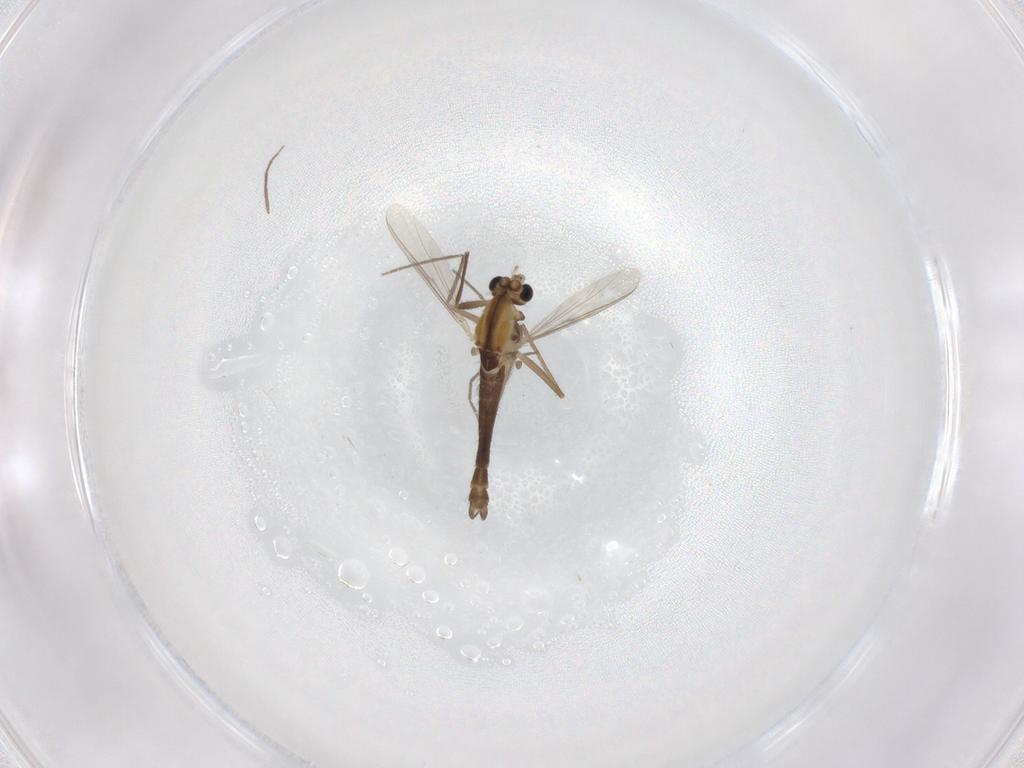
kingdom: Animalia
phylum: Arthropoda
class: Insecta
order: Diptera
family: Chironomidae
